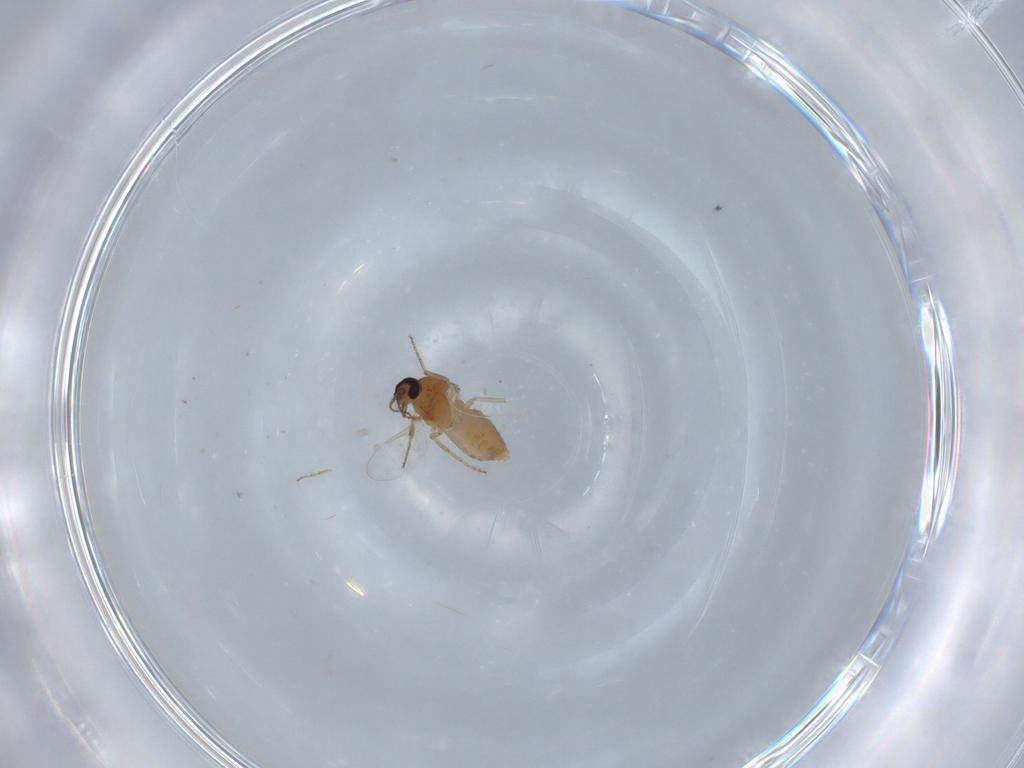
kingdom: Animalia
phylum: Arthropoda
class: Insecta
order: Diptera
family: Ceratopogonidae
